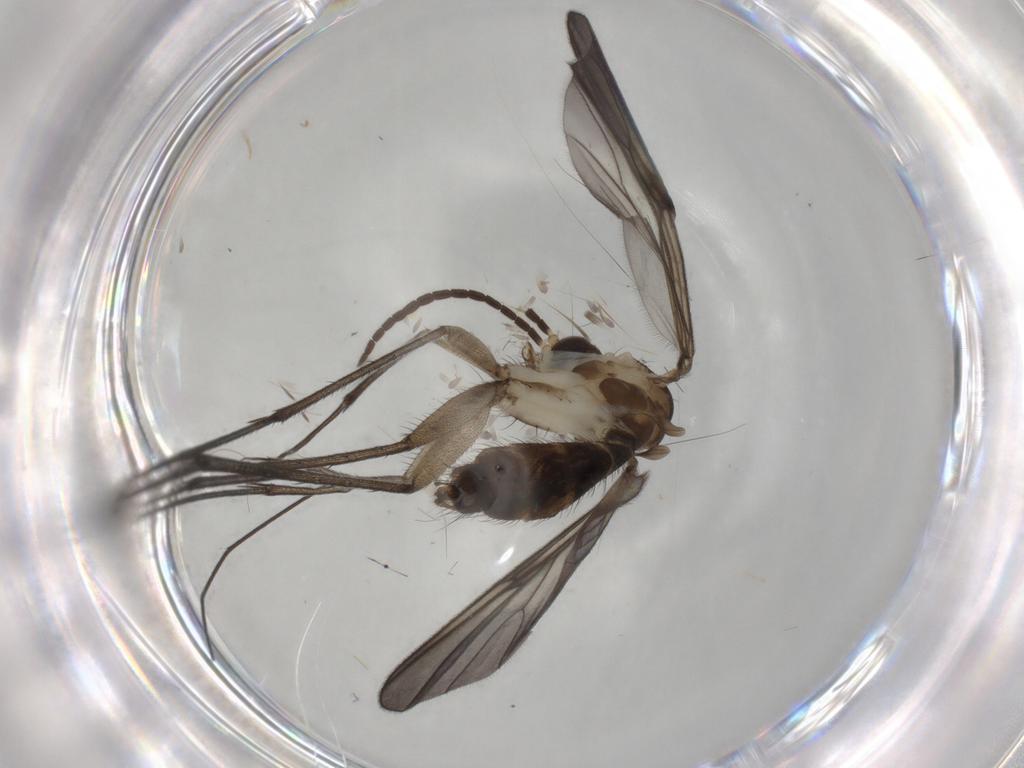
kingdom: Animalia
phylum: Arthropoda
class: Insecta
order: Diptera
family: Mycetophilidae
